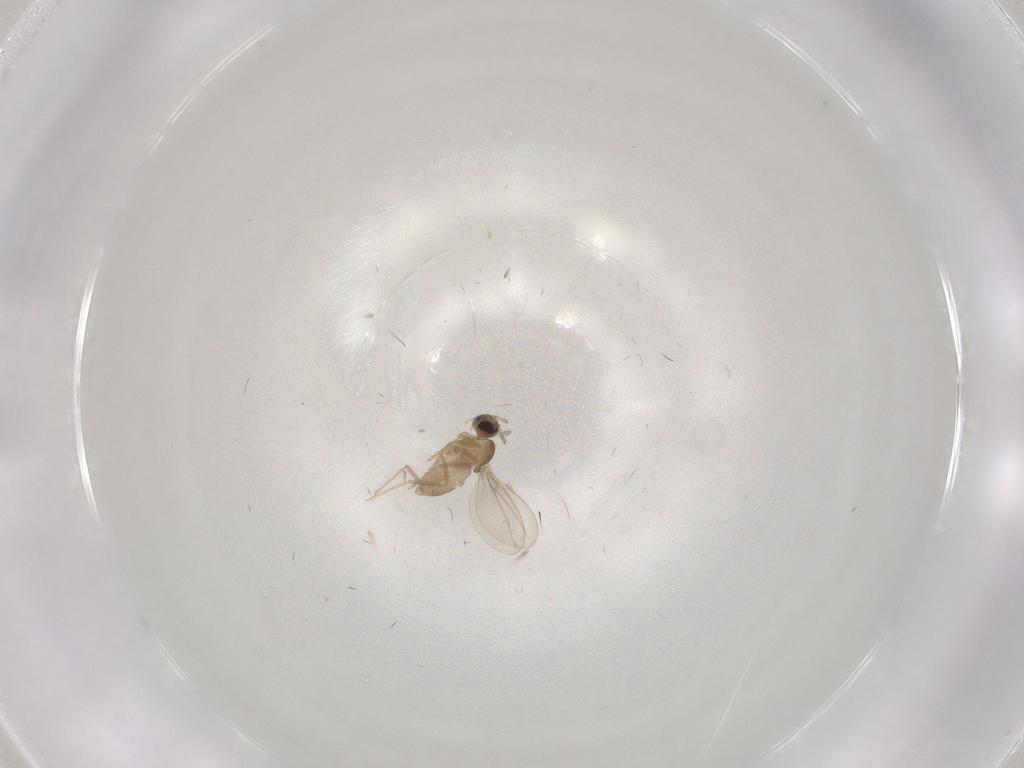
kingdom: Animalia
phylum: Arthropoda
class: Insecta
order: Diptera
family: Cecidomyiidae
